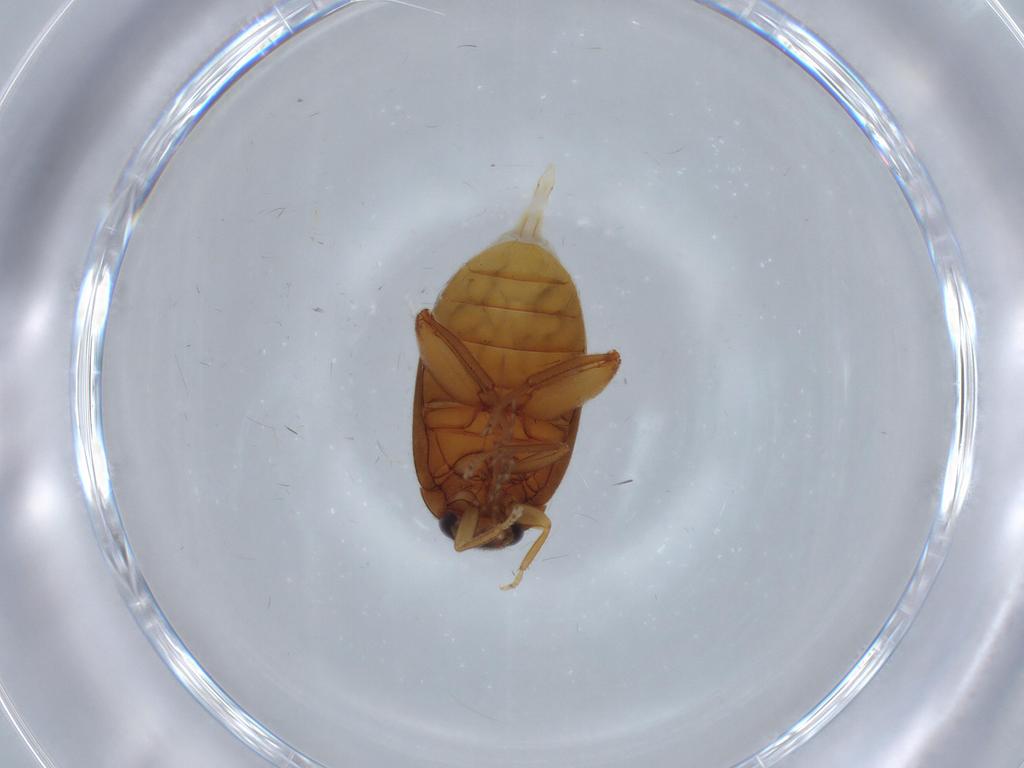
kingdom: Animalia
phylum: Arthropoda
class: Insecta
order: Coleoptera
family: Scirtidae
